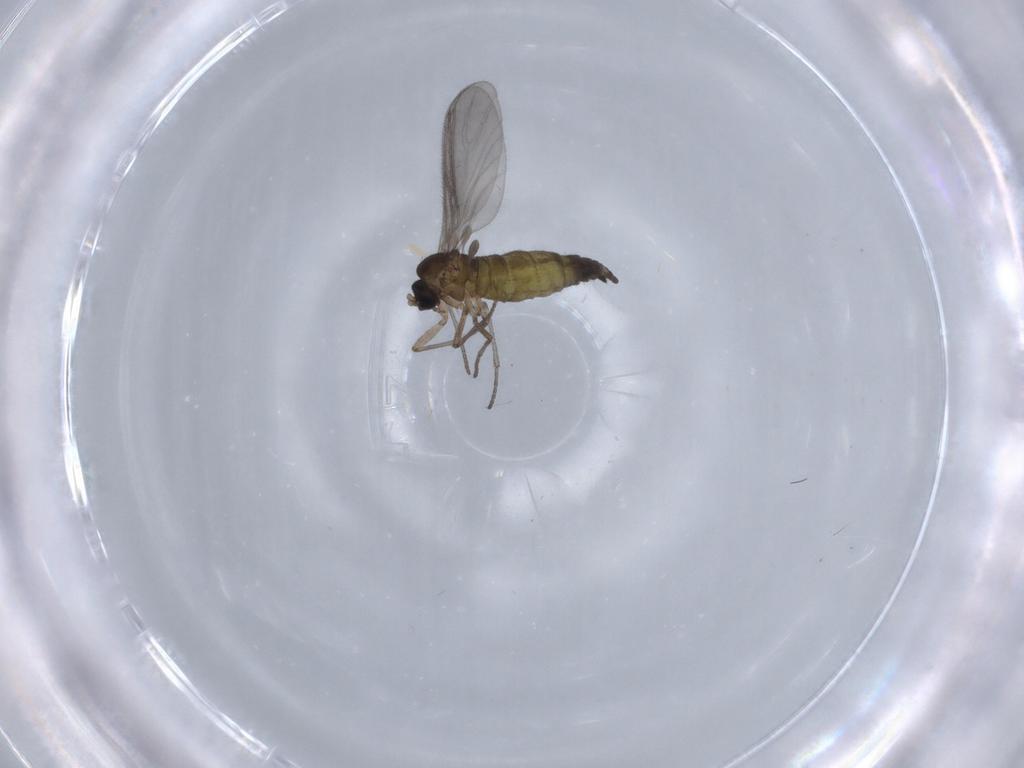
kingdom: Animalia
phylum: Arthropoda
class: Insecta
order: Diptera
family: Sciaridae
